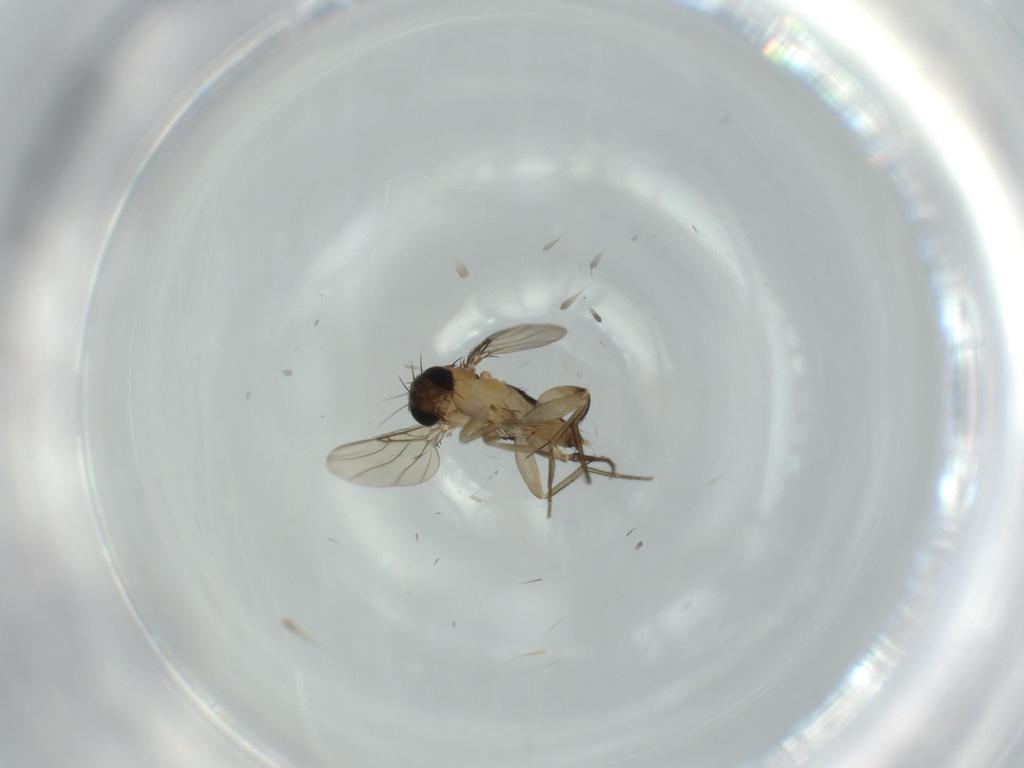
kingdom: Animalia
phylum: Arthropoda
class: Insecta
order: Diptera
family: Phoridae
